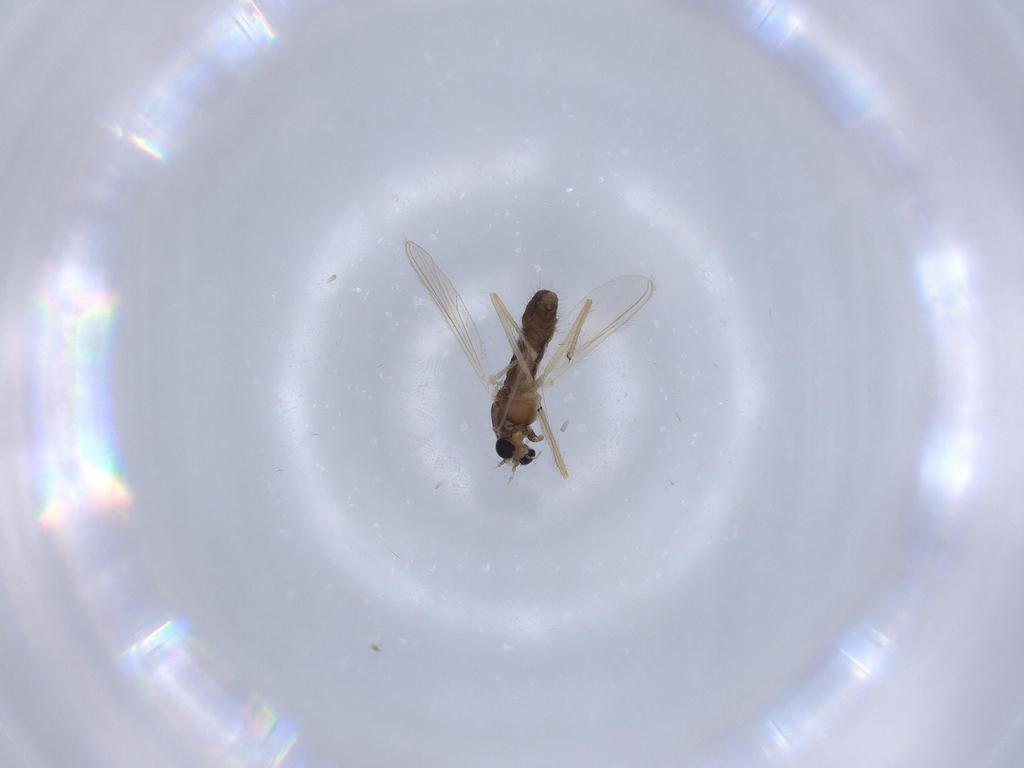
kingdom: Animalia
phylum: Arthropoda
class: Insecta
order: Diptera
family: Chironomidae
